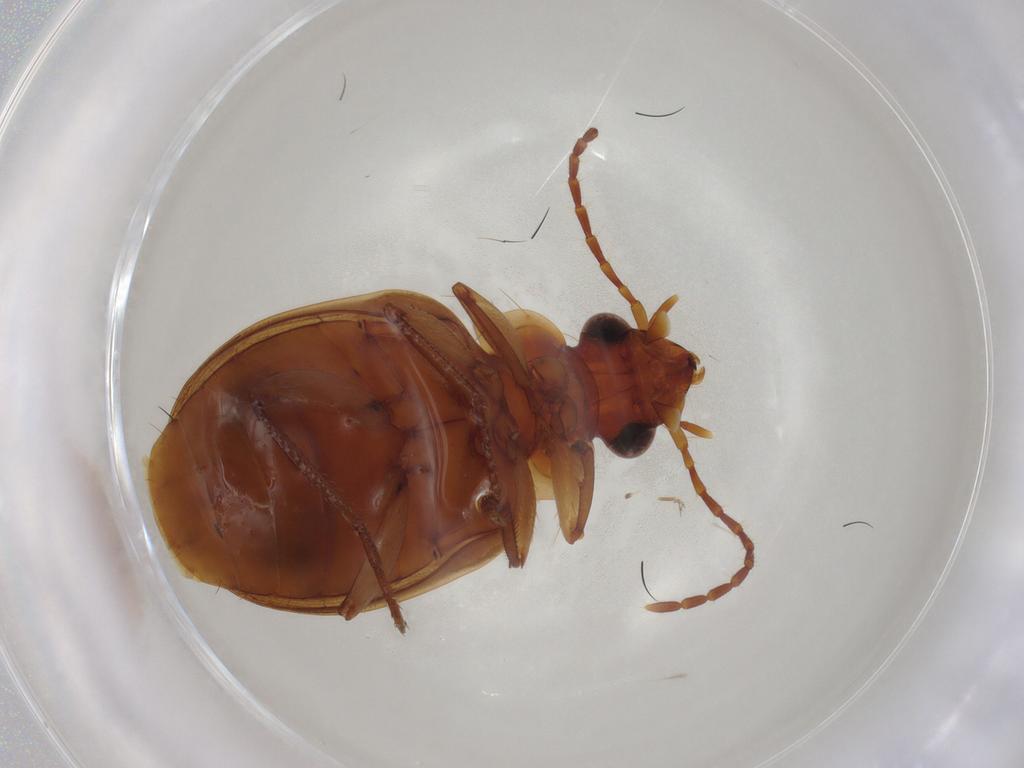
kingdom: Animalia
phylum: Arthropoda
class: Insecta
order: Coleoptera
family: Carabidae
